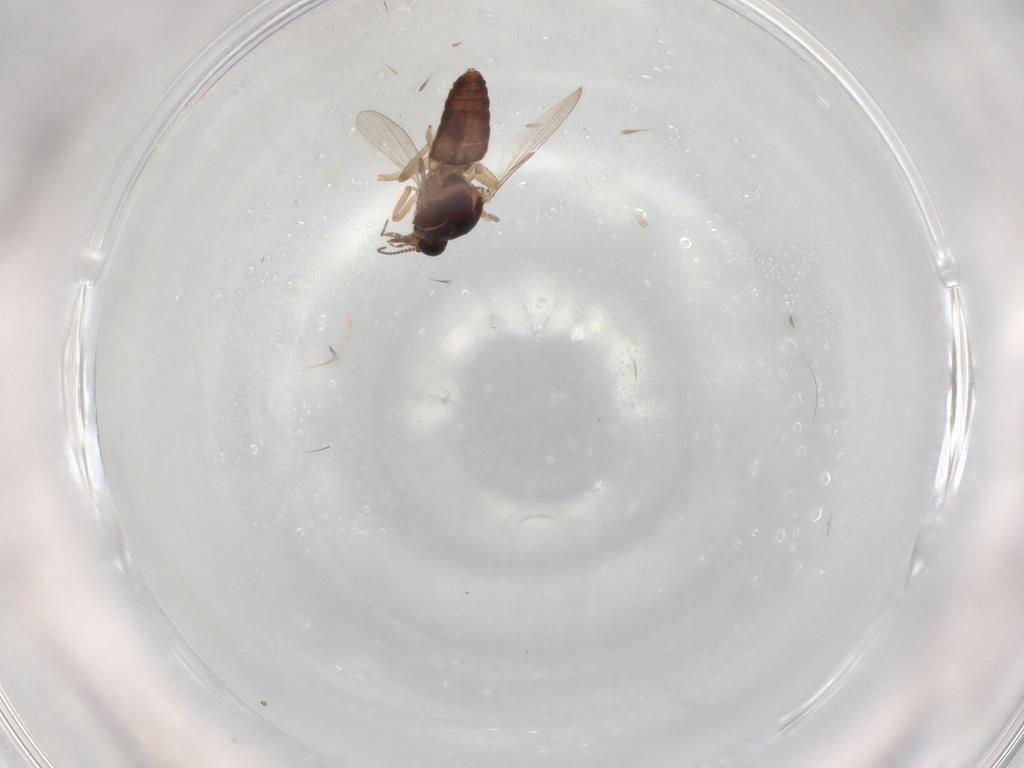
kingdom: Animalia
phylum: Arthropoda
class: Insecta
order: Diptera
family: Ceratopogonidae
